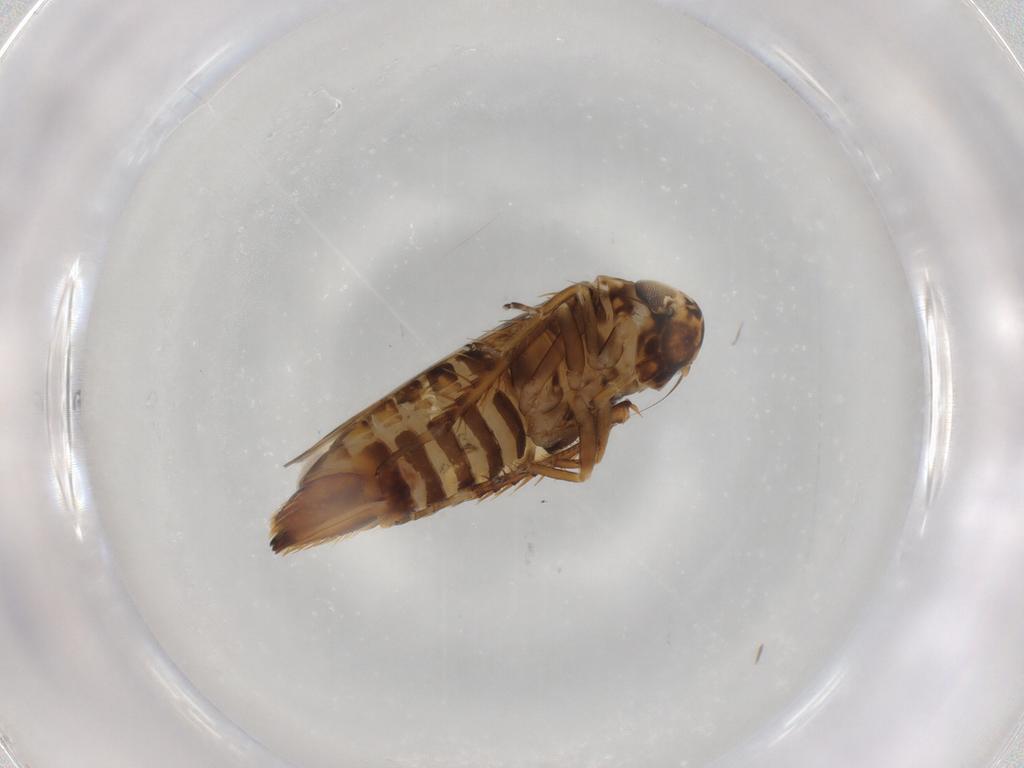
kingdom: Animalia
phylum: Arthropoda
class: Insecta
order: Hemiptera
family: Cicadellidae
